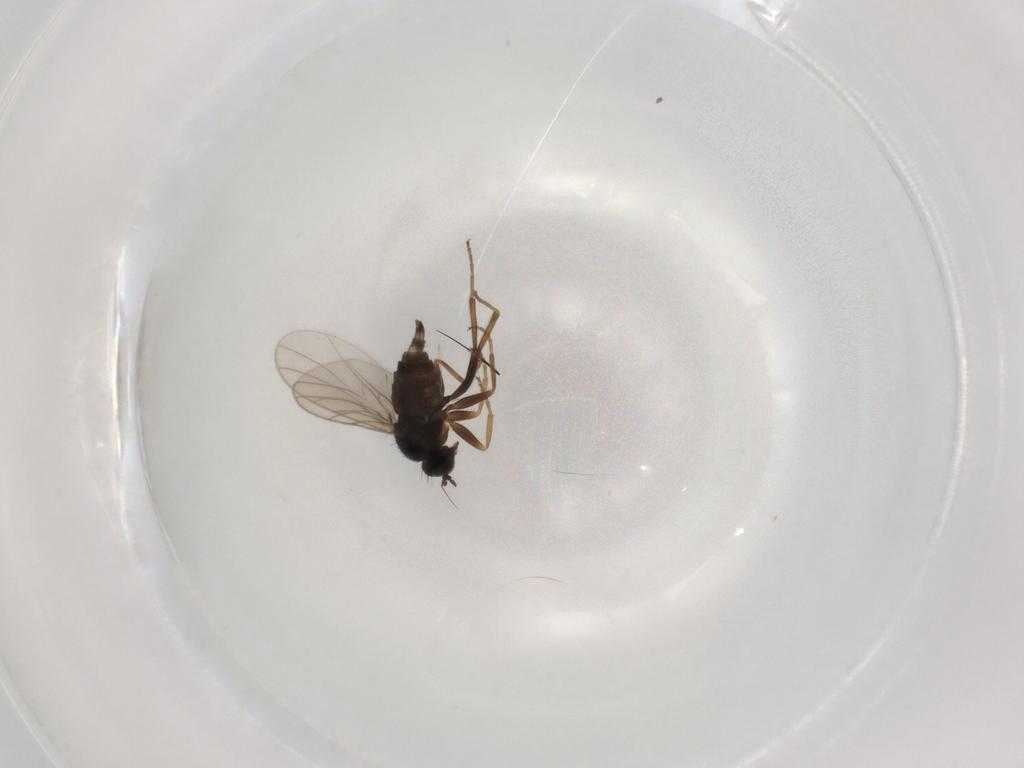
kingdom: Animalia
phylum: Arthropoda
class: Insecta
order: Diptera
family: Hybotidae
